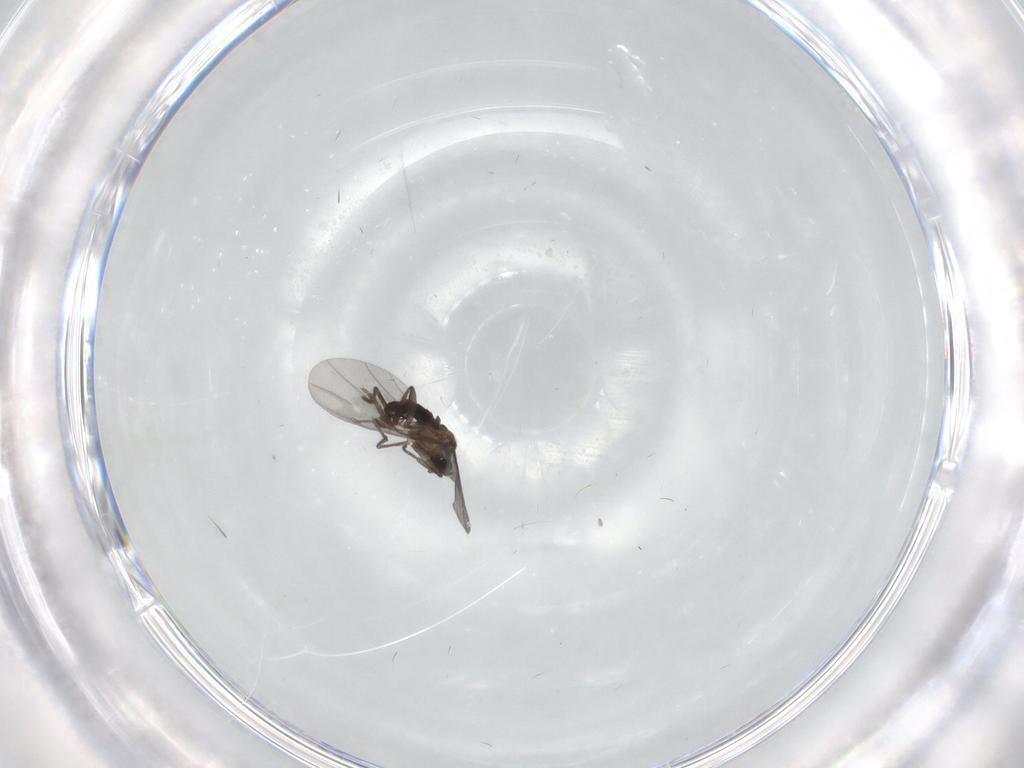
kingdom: Animalia
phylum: Arthropoda
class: Insecta
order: Diptera
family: Phoridae
